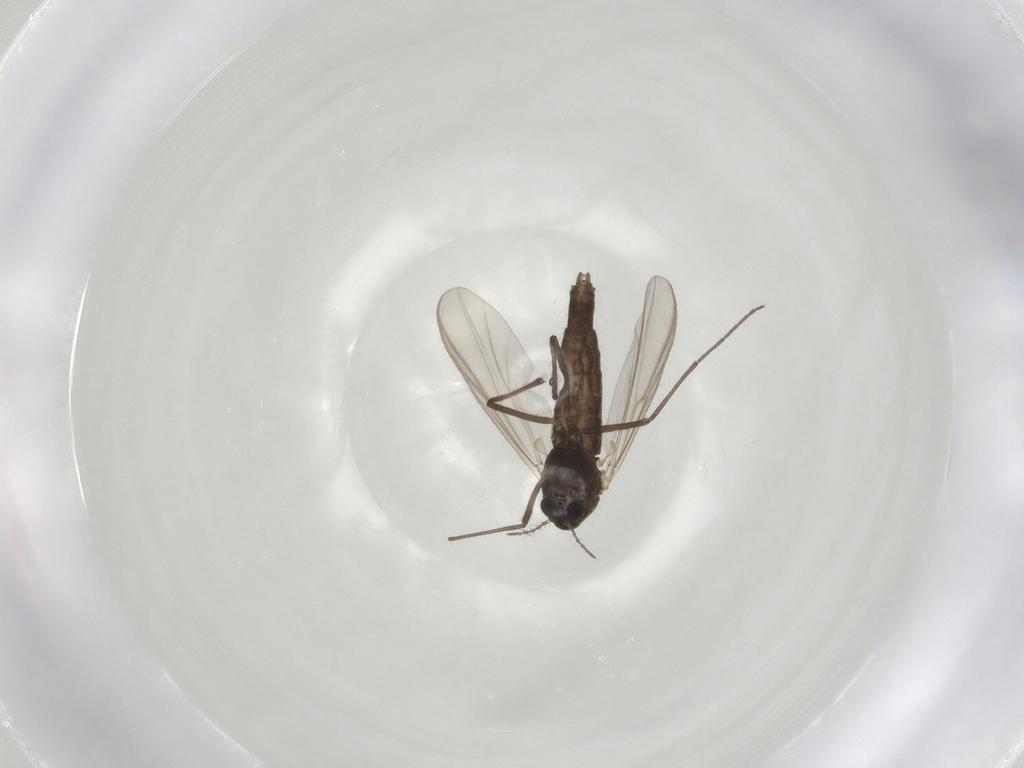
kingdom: Animalia
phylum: Arthropoda
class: Insecta
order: Diptera
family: Chironomidae
